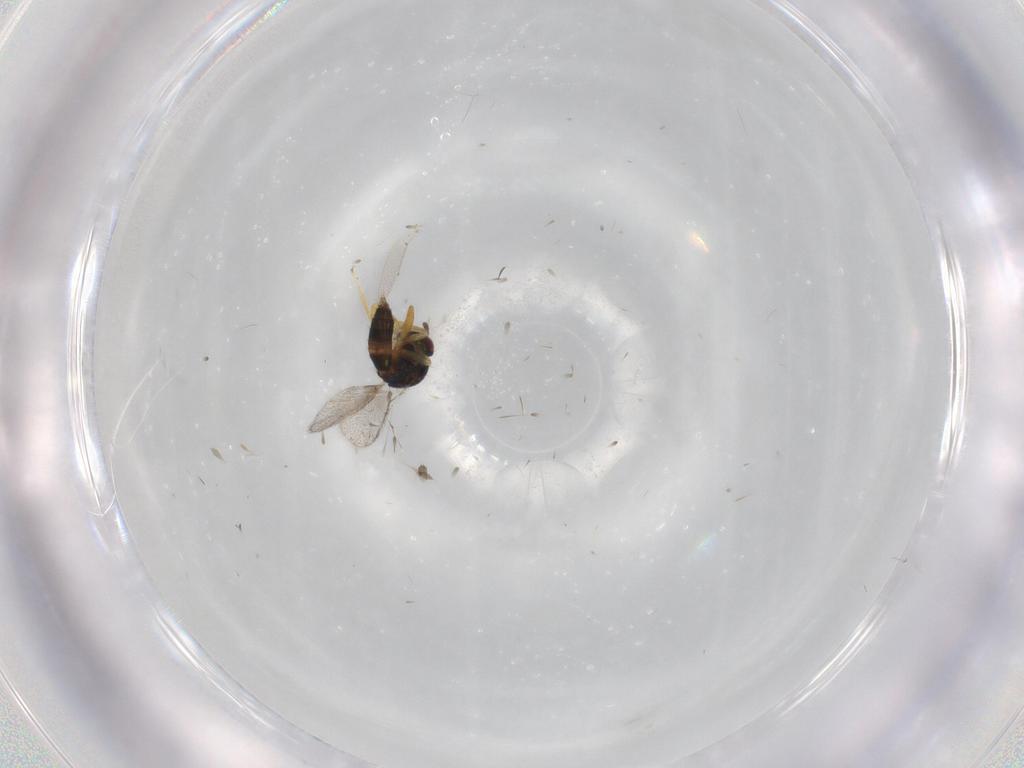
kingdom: Animalia
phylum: Arthropoda
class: Insecta
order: Hymenoptera
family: Torymidae
